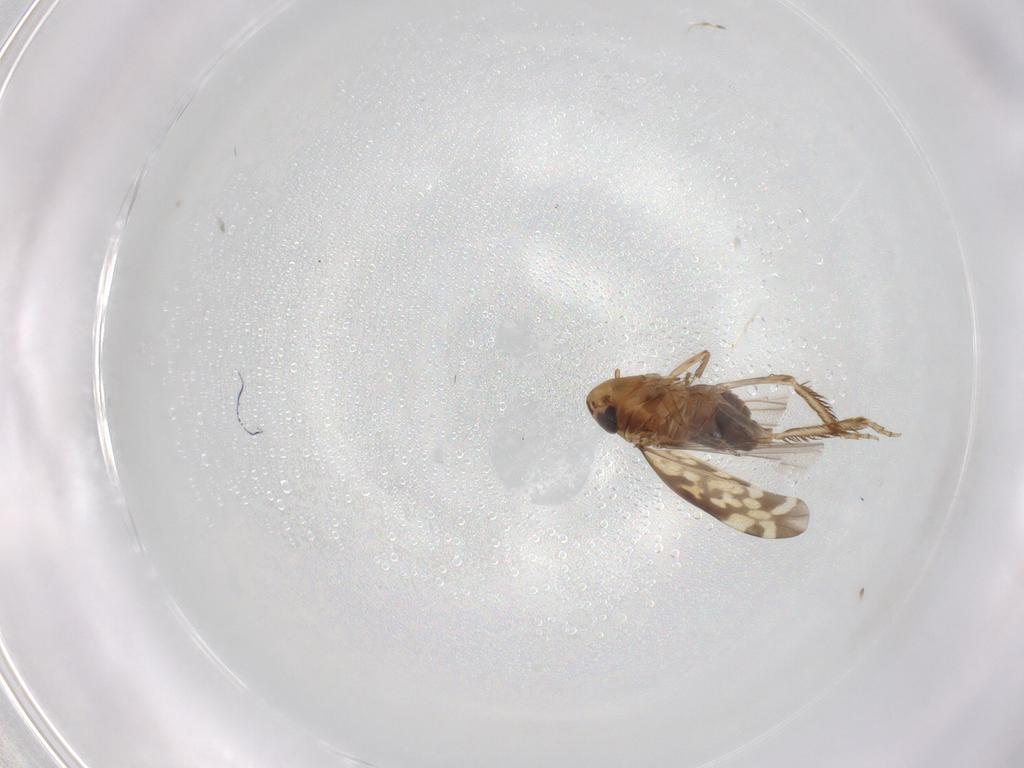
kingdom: Animalia
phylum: Arthropoda
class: Insecta
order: Hemiptera
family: Cicadellidae
